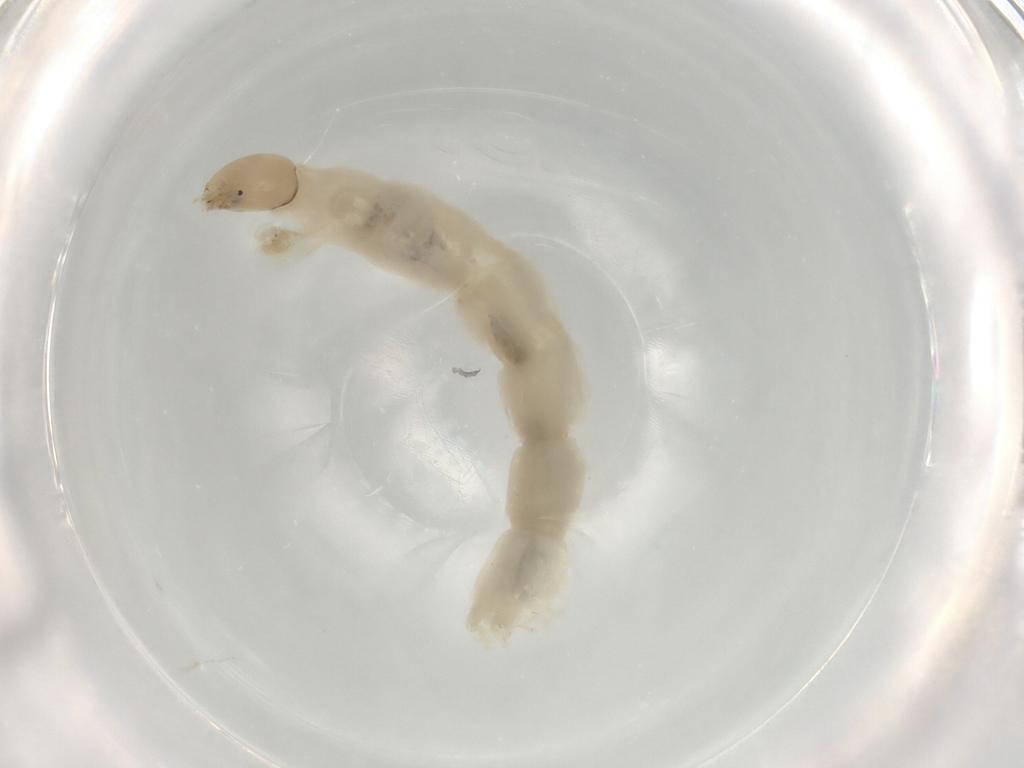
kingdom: Animalia
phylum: Arthropoda
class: Insecta
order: Diptera
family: Chironomidae
